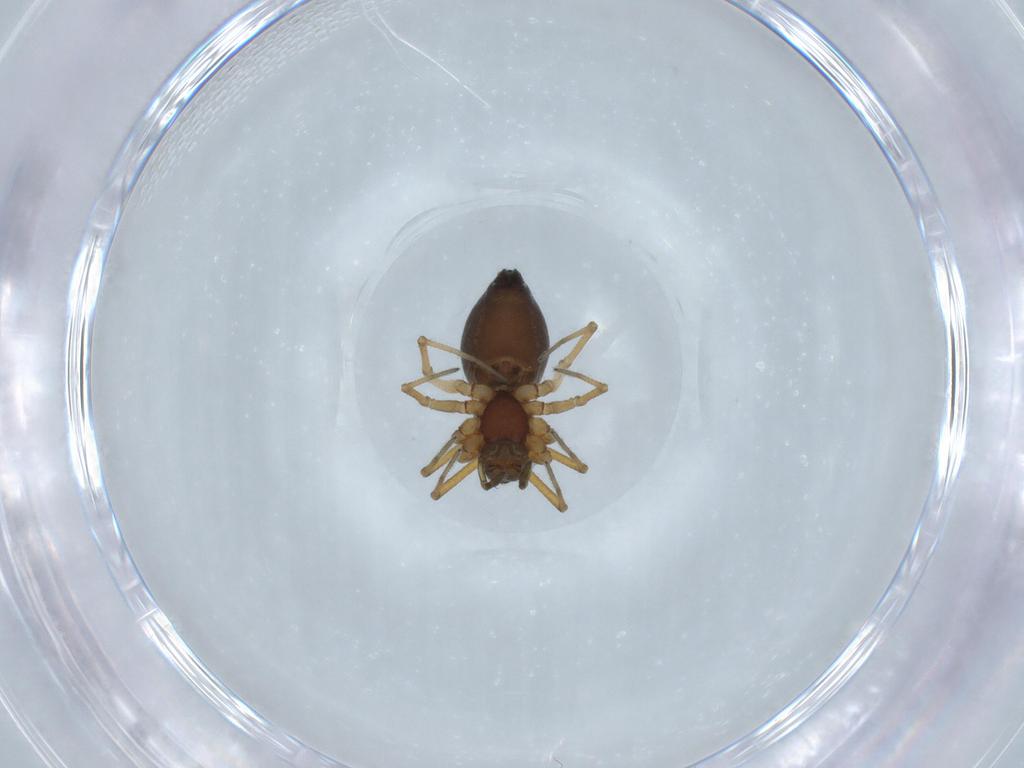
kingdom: Animalia
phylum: Arthropoda
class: Arachnida
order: Araneae
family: Linyphiidae
